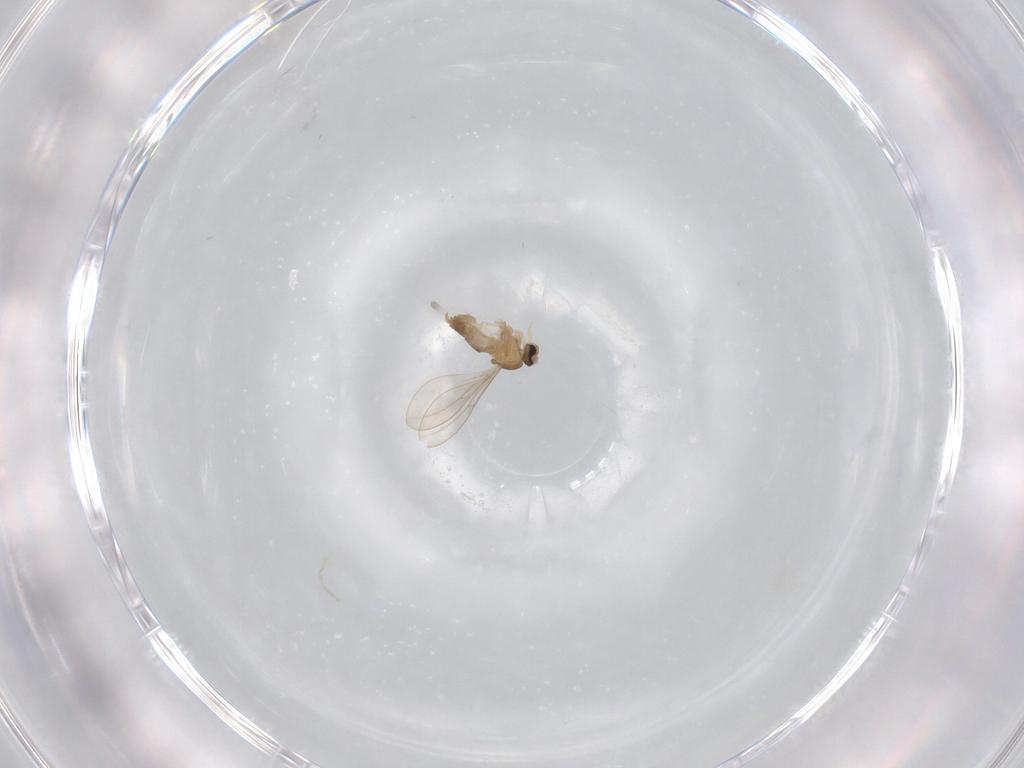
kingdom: Animalia
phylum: Arthropoda
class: Insecta
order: Diptera
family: Cecidomyiidae
